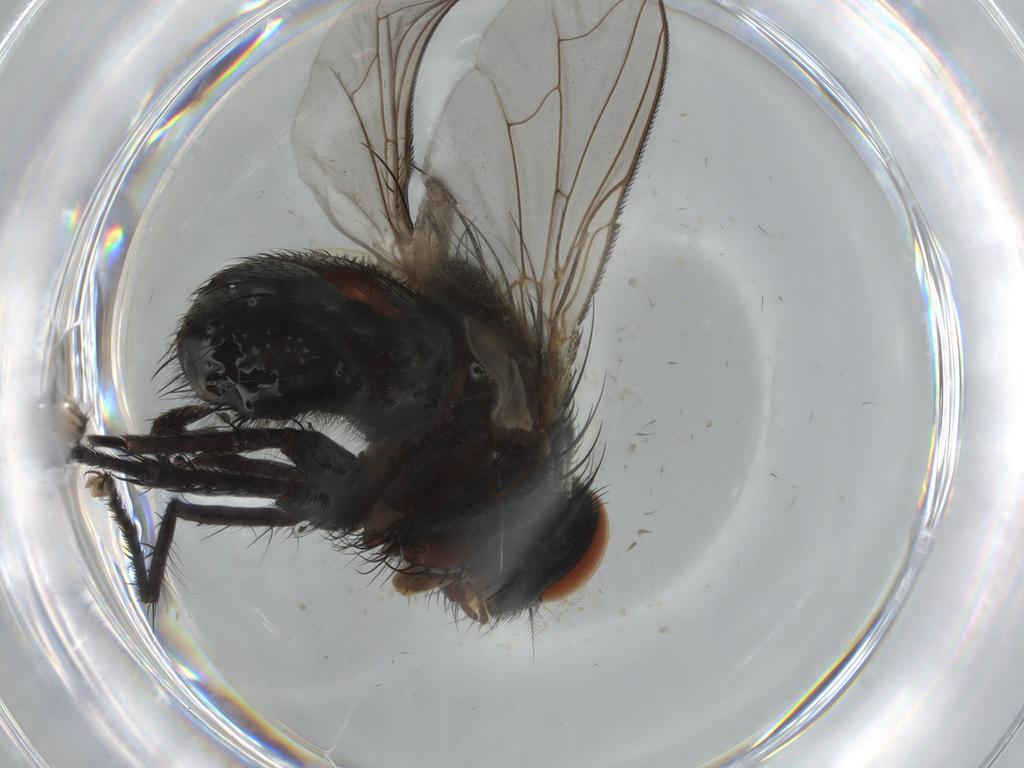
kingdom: Animalia
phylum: Arthropoda
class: Insecta
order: Diptera
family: Sarcophagidae
